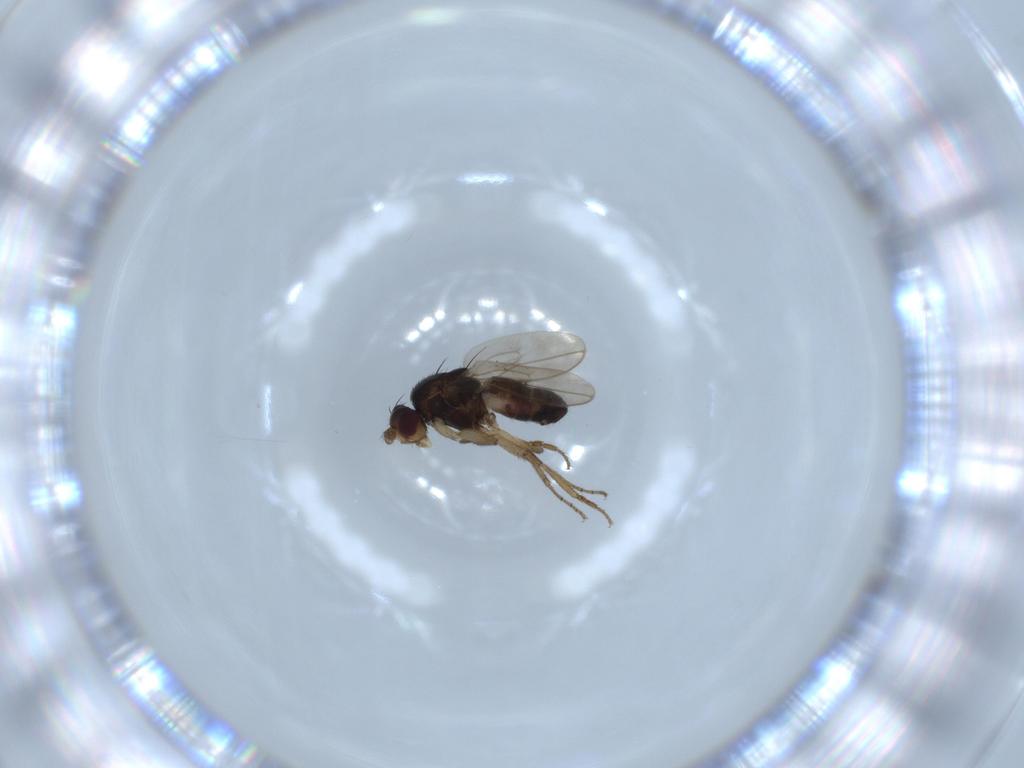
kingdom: Animalia
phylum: Arthropoda
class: Insecta
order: Diptera
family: Sphaeroceridae
